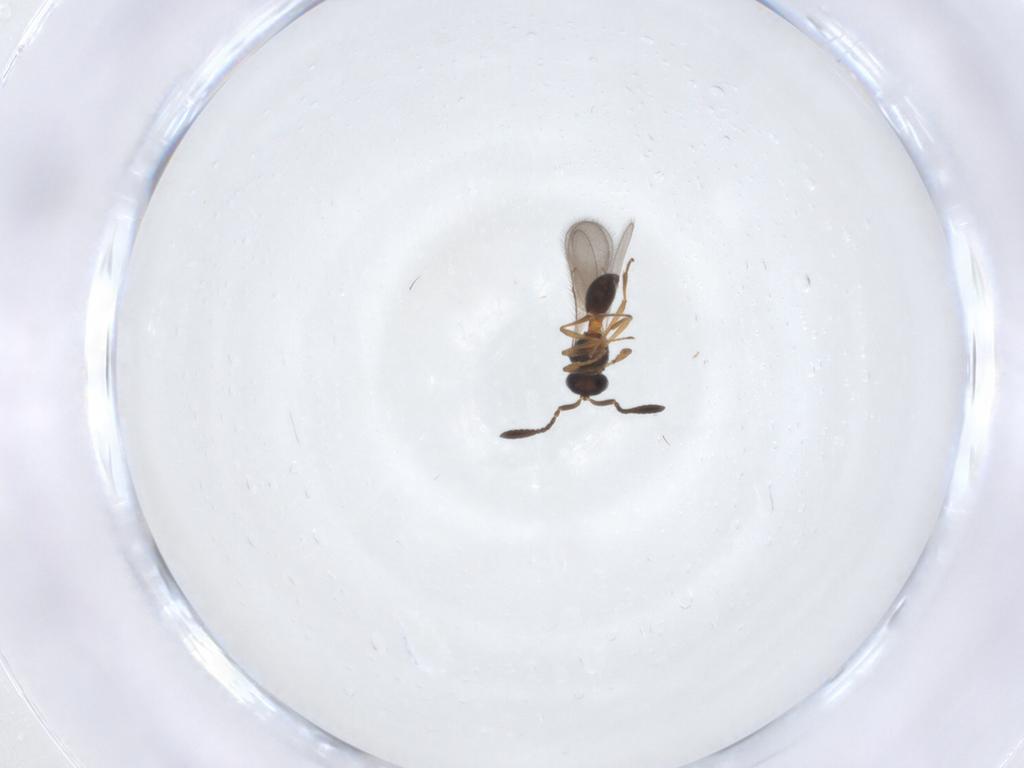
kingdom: Animalia
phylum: Arthropoda
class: Insecta
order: Hymenoptera
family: Scelionidae
